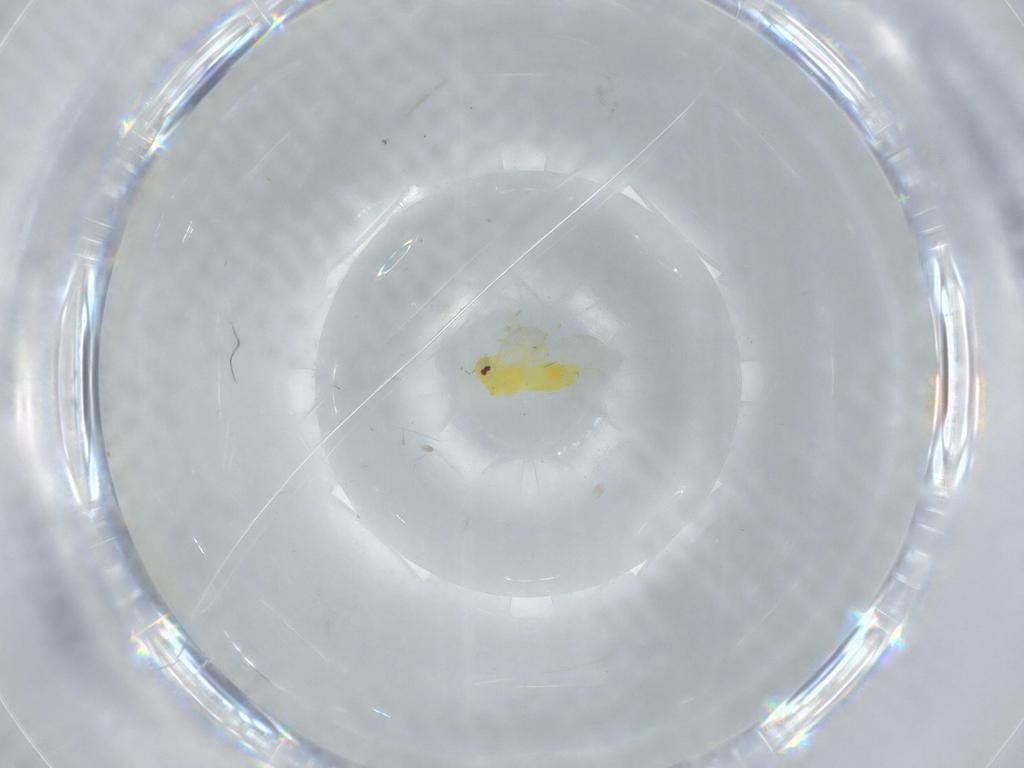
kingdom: Animalia
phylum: Arthropoda
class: Insecta
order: Diptera
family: Chironomidae
